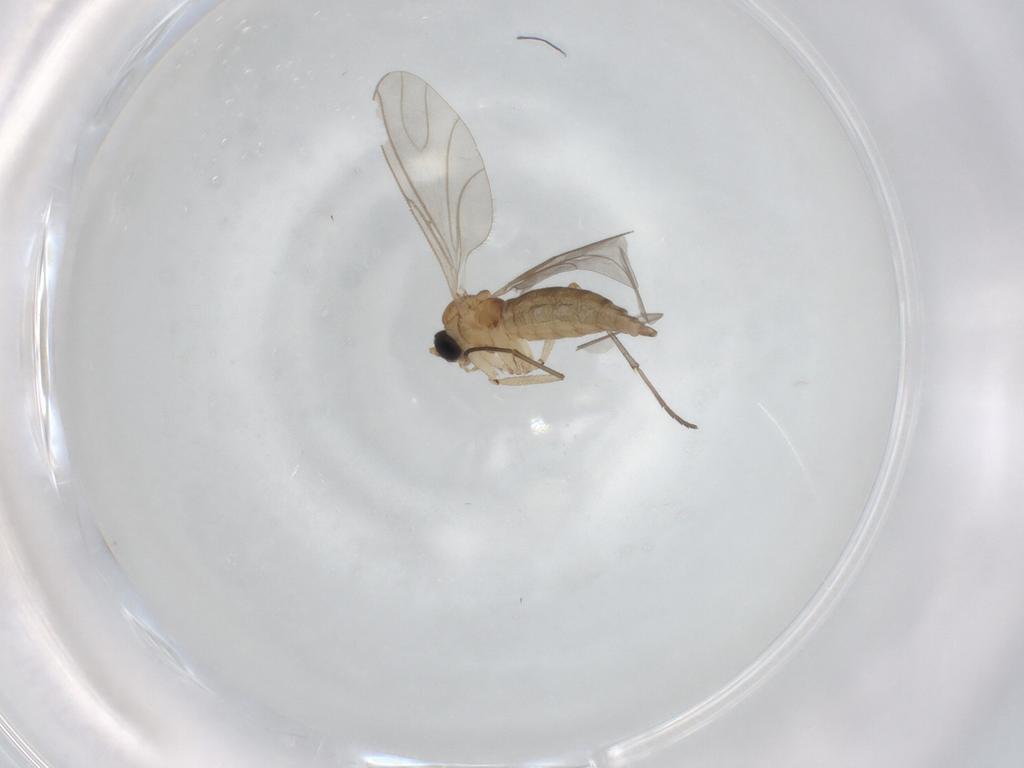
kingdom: Animalia
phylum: Arthropoda
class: Insecta
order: Diptera
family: Sciaridae
